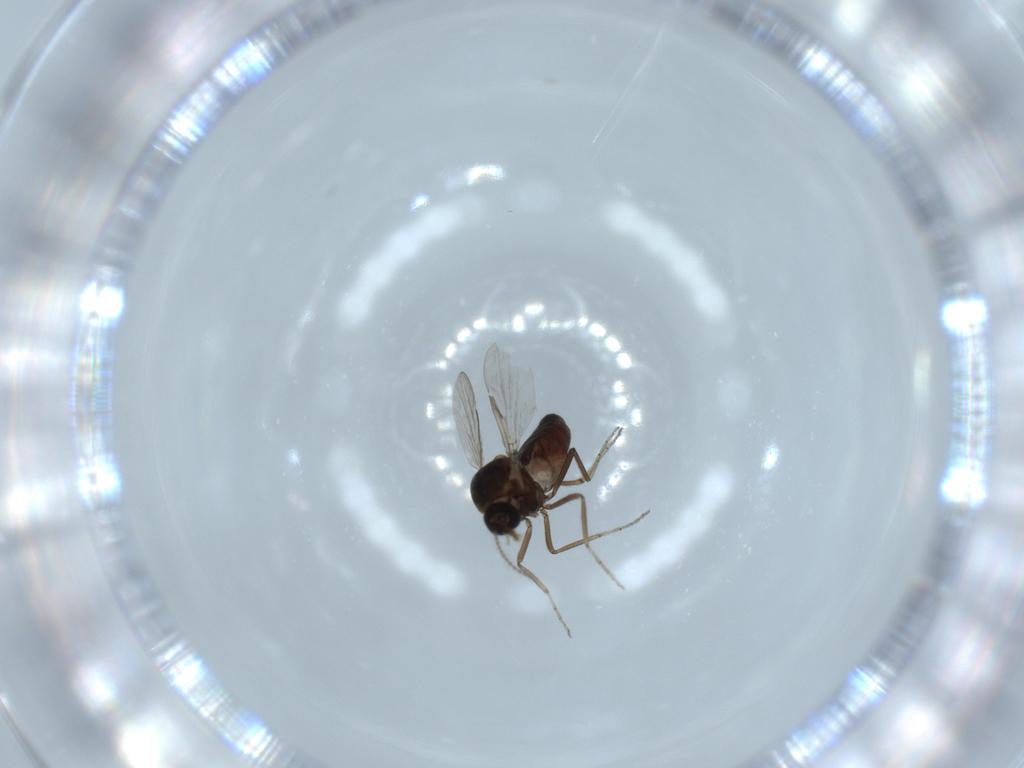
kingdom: Animalia
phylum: Arthropoda
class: Insecta
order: Diptera
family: Ceratopogonidae
